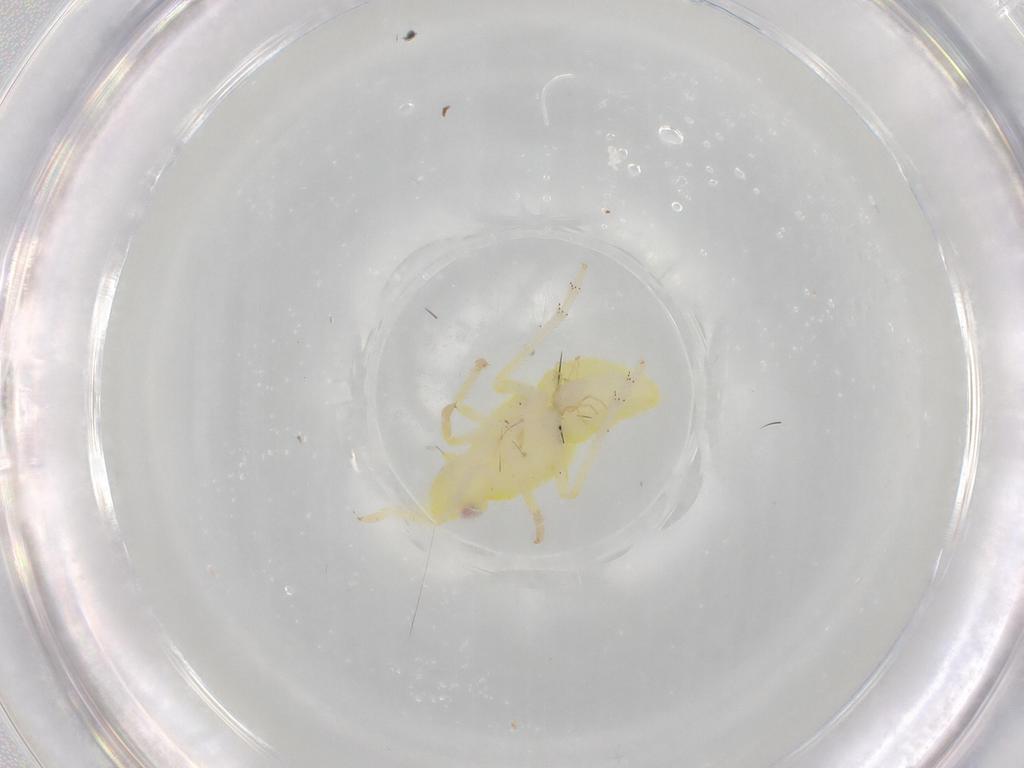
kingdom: Animalia
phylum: Arthropoda
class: Insecta
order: Hemiptera
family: Tropiduchidae
